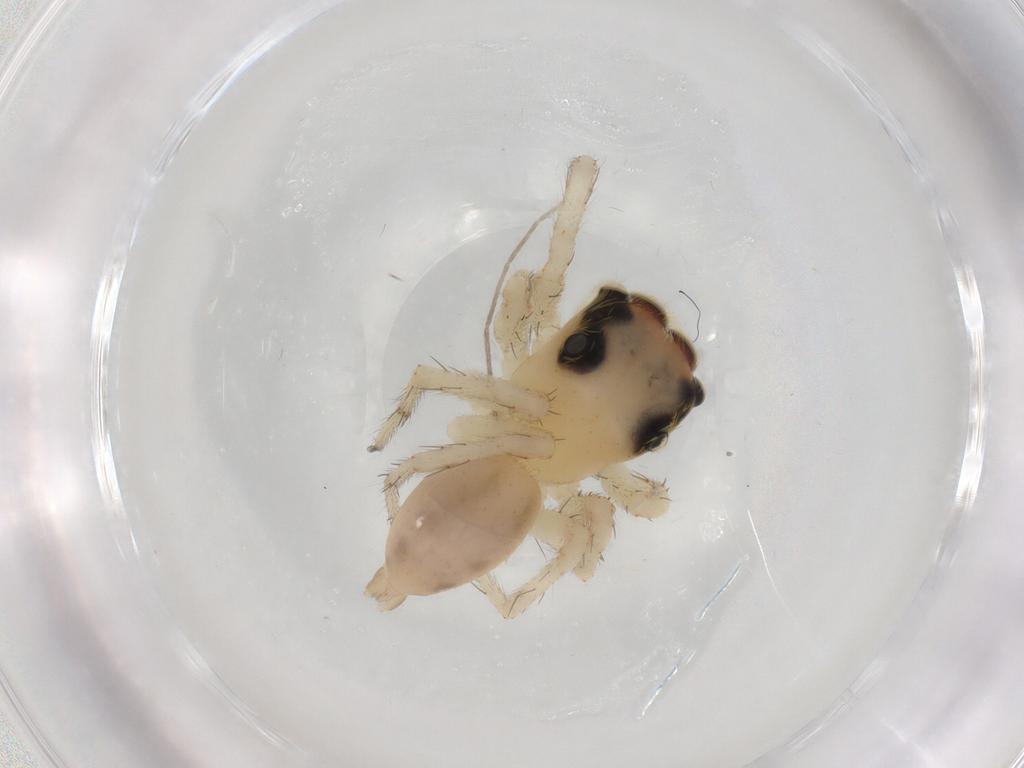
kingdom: Animalia
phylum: Arthropoda
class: Arachnida
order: Araneae
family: Salticidae
